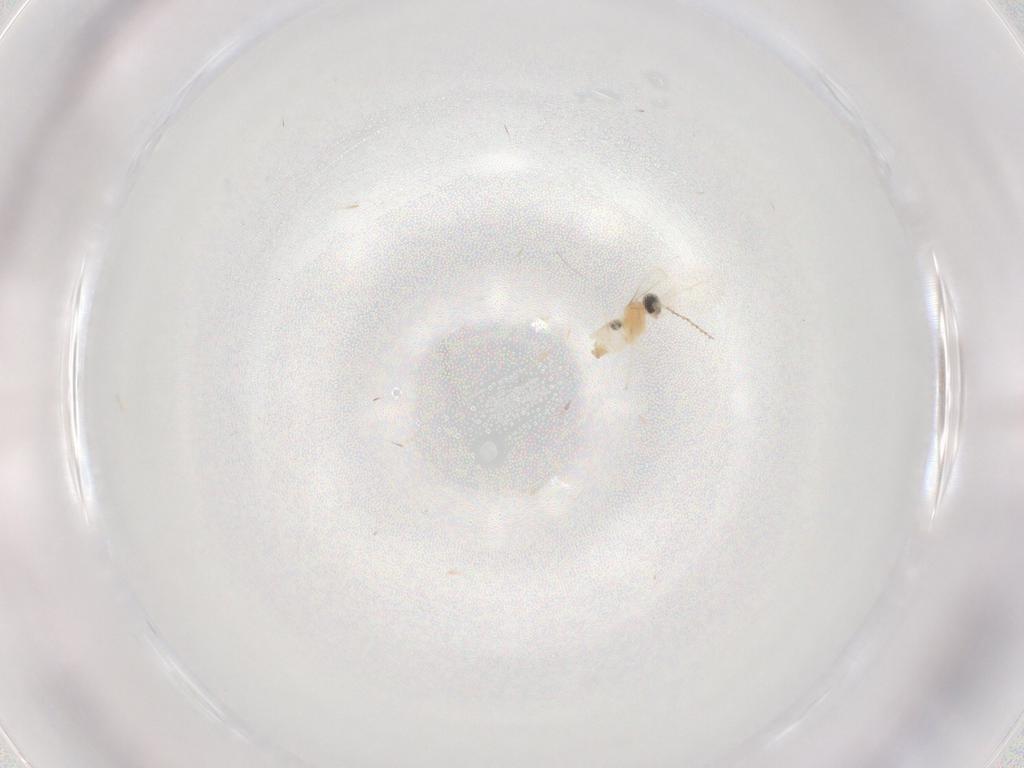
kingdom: Animalia
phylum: Arthropoda
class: Insecta
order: Diptera
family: Cecidomyiidae
